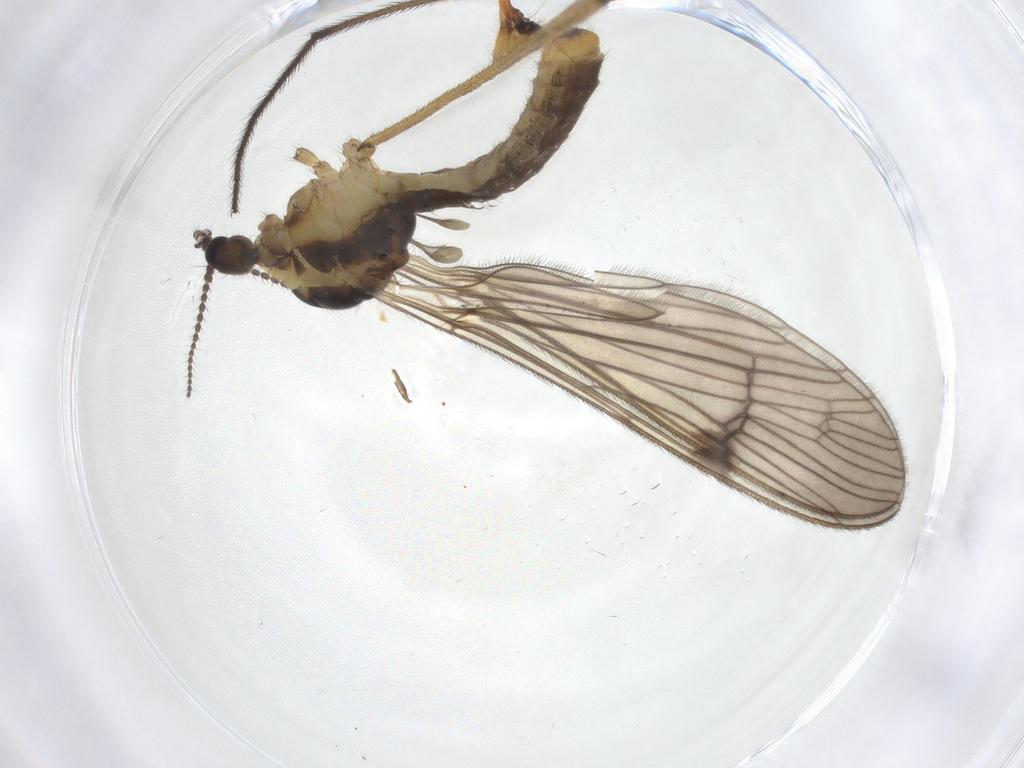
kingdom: Animalia
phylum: Arthropoda
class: Insecta
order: Diptera
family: Limoniidae
